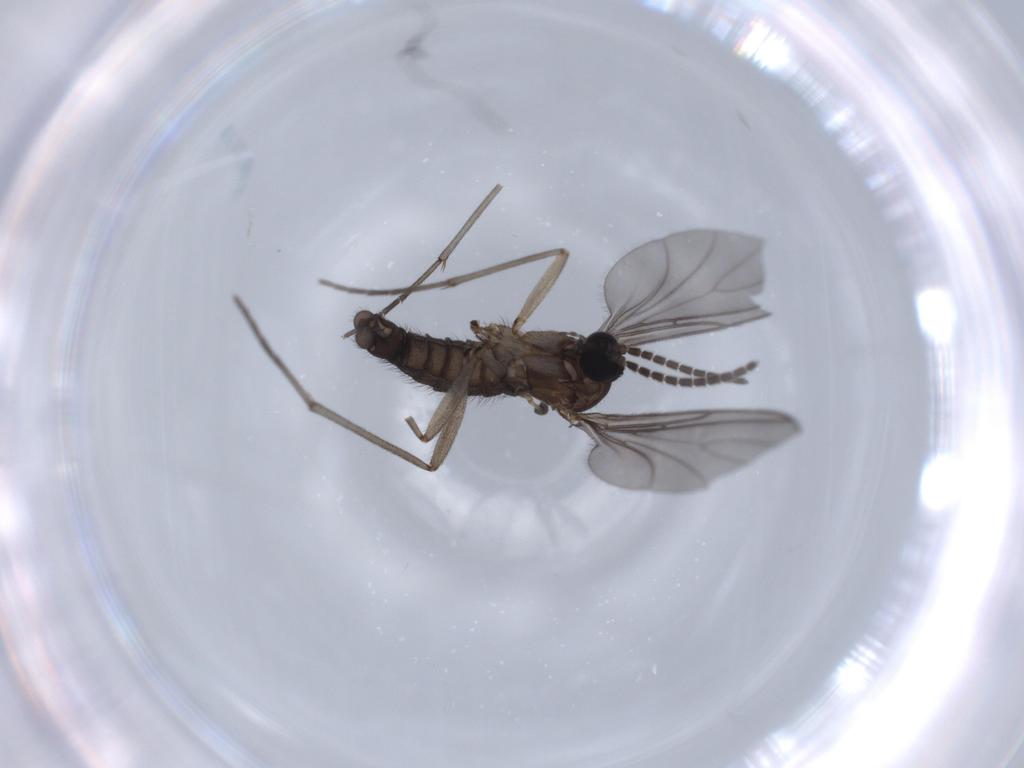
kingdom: Animalia
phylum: Arthropoda
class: Insecta
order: Diptera
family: Sciaridae
